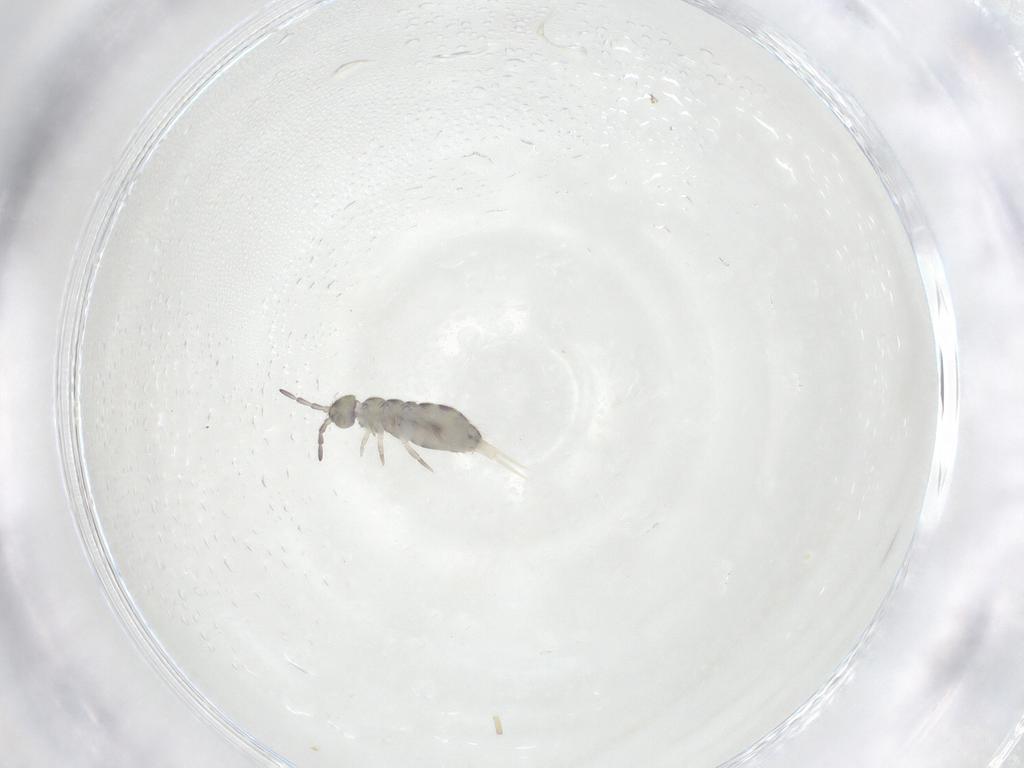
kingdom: Animalia
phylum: Arthropoda
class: Collembola
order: Entomobryomorpha
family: Isotomidae
